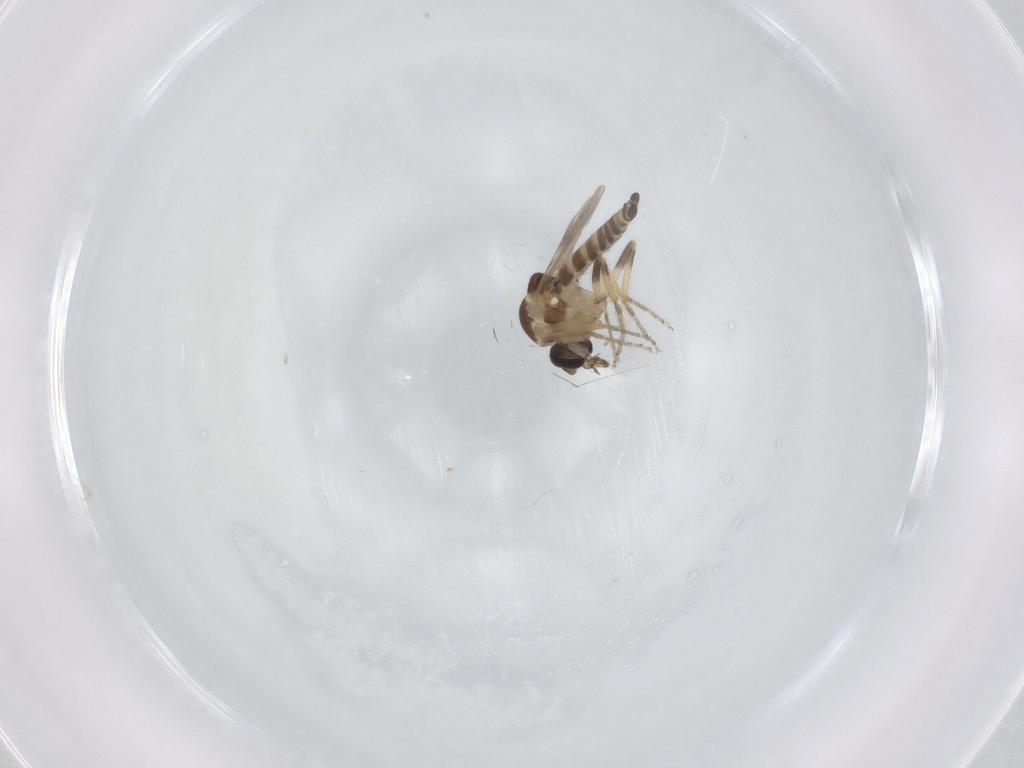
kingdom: Animalia
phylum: Arthropoda
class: Insecta
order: Diptera
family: Ceratopogonidae
